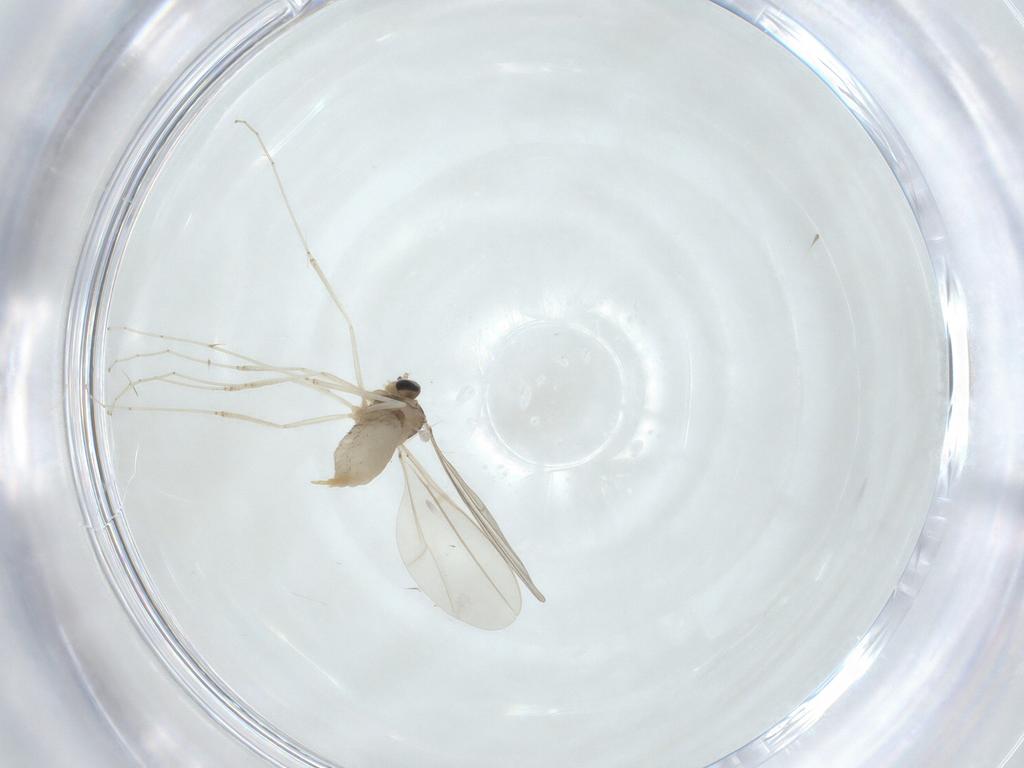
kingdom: Animalia
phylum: Arthropoda
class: Insecta
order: Diptera
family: Cecidomyiidae
